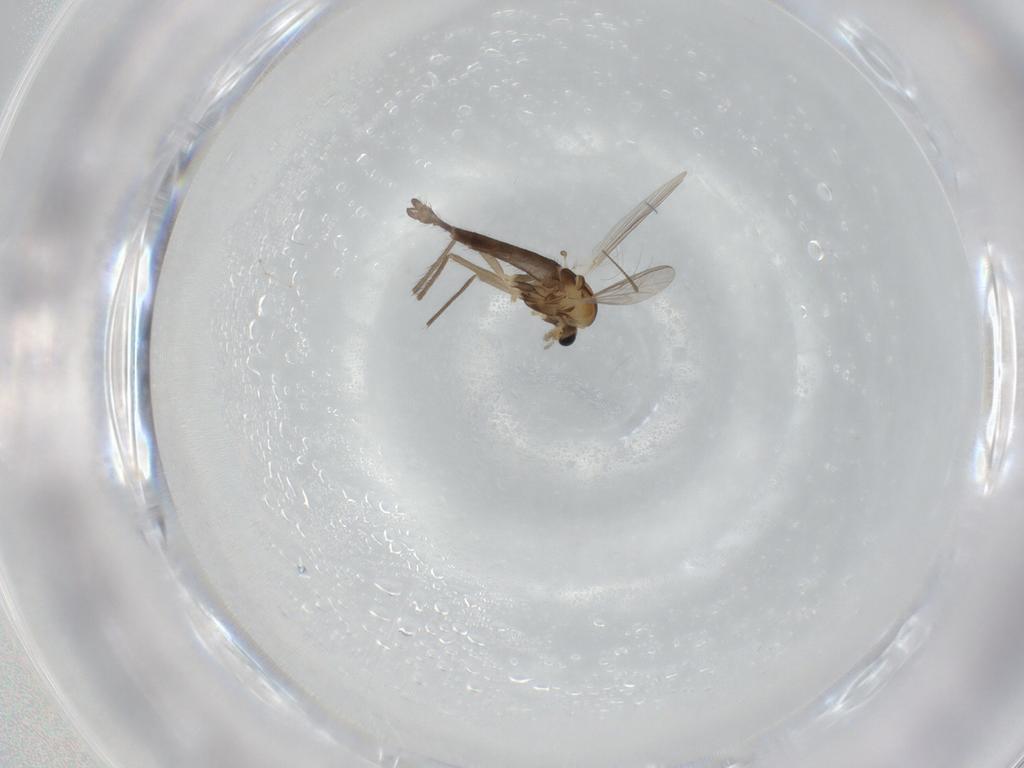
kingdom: Animalia
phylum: Arthropoda
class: Insecta
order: Diptera
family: Chironomidae
